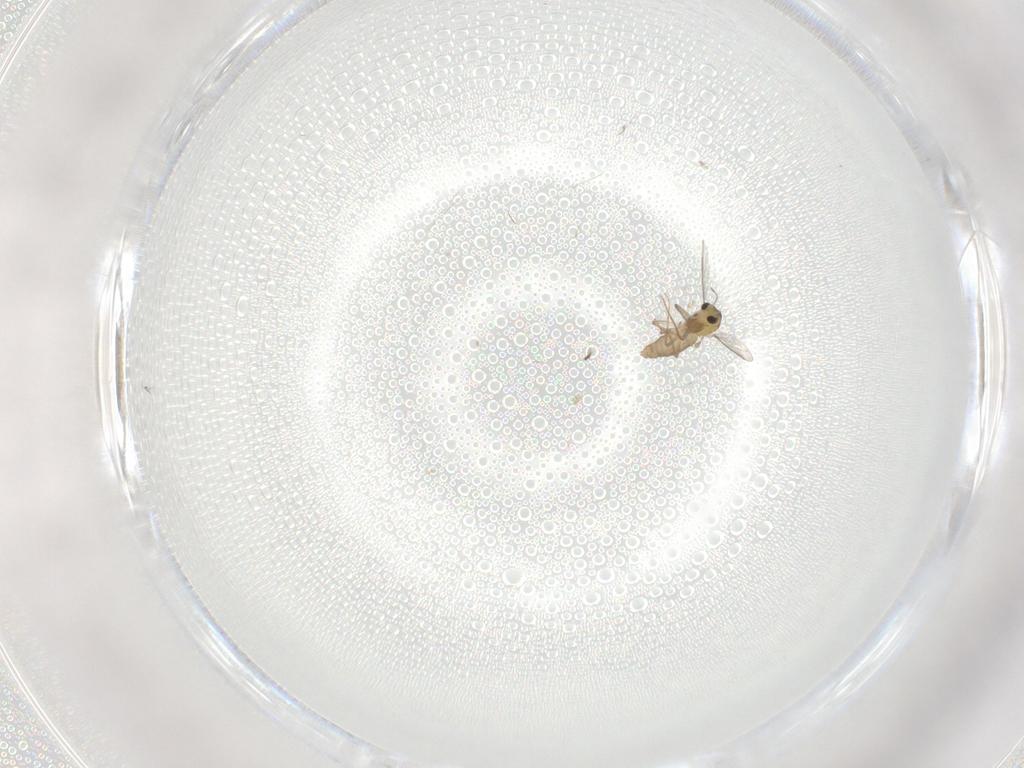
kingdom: Animalia
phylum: Arthropoda
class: Insecta
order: Diptera
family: Chironomidae
